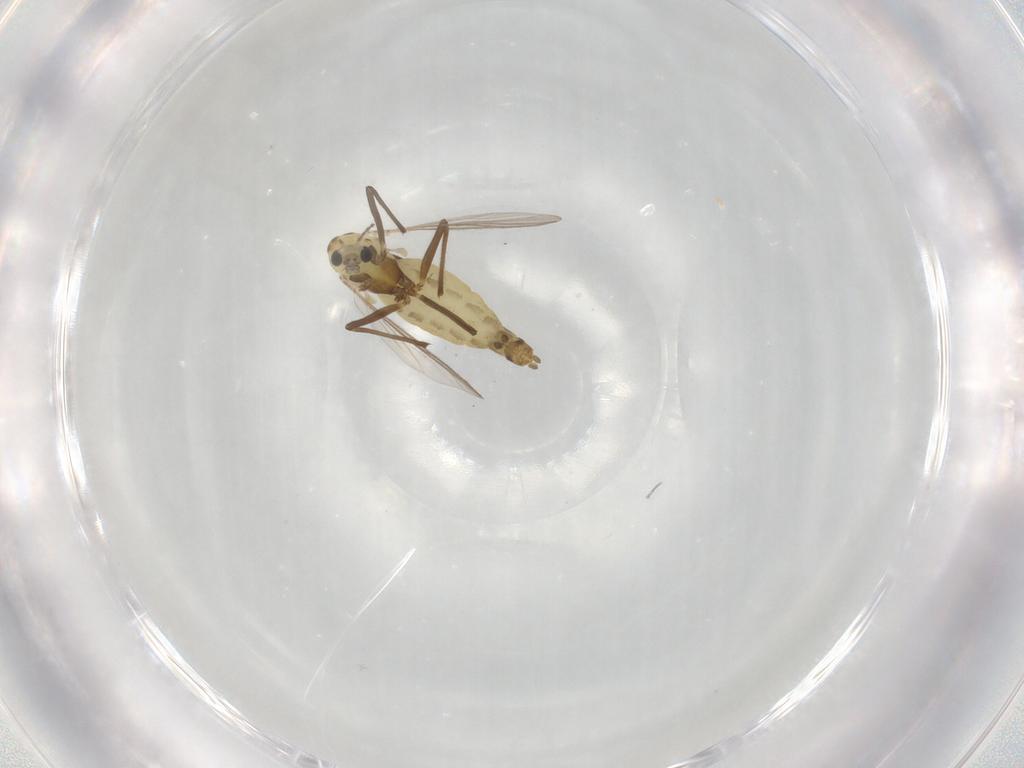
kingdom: Animalia
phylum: Arthropoda
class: Insecta
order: Diptera
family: Chironomidae
